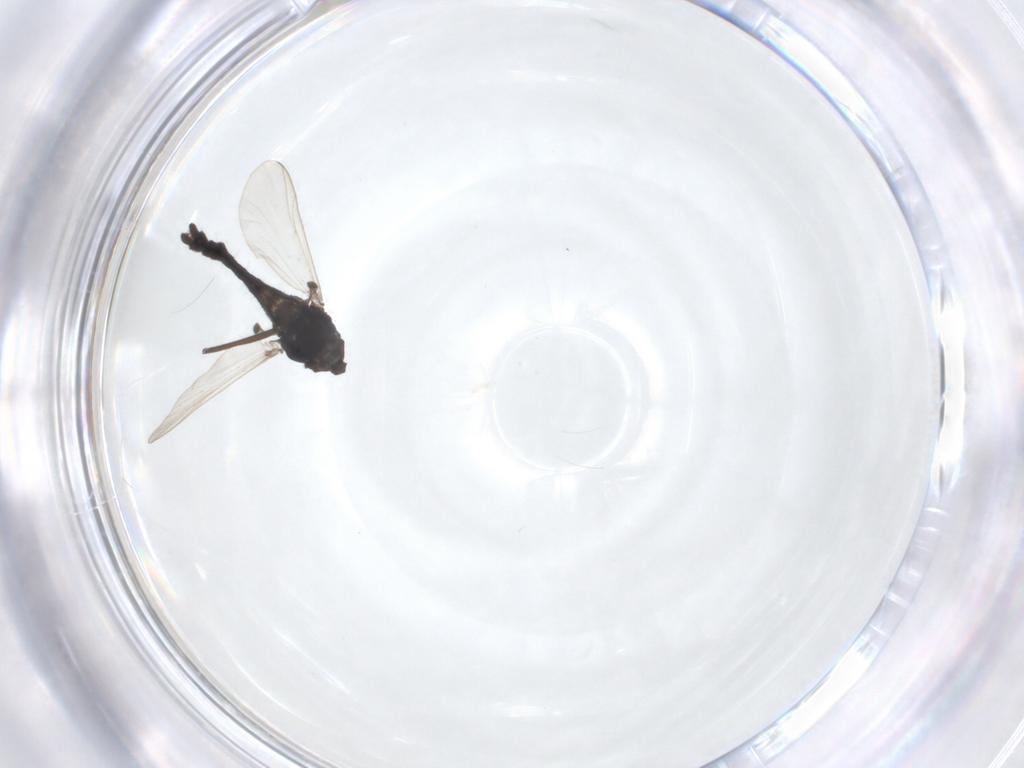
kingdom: Animalia
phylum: Arthropoda
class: Insecta
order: Diptera
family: Chironomidae
